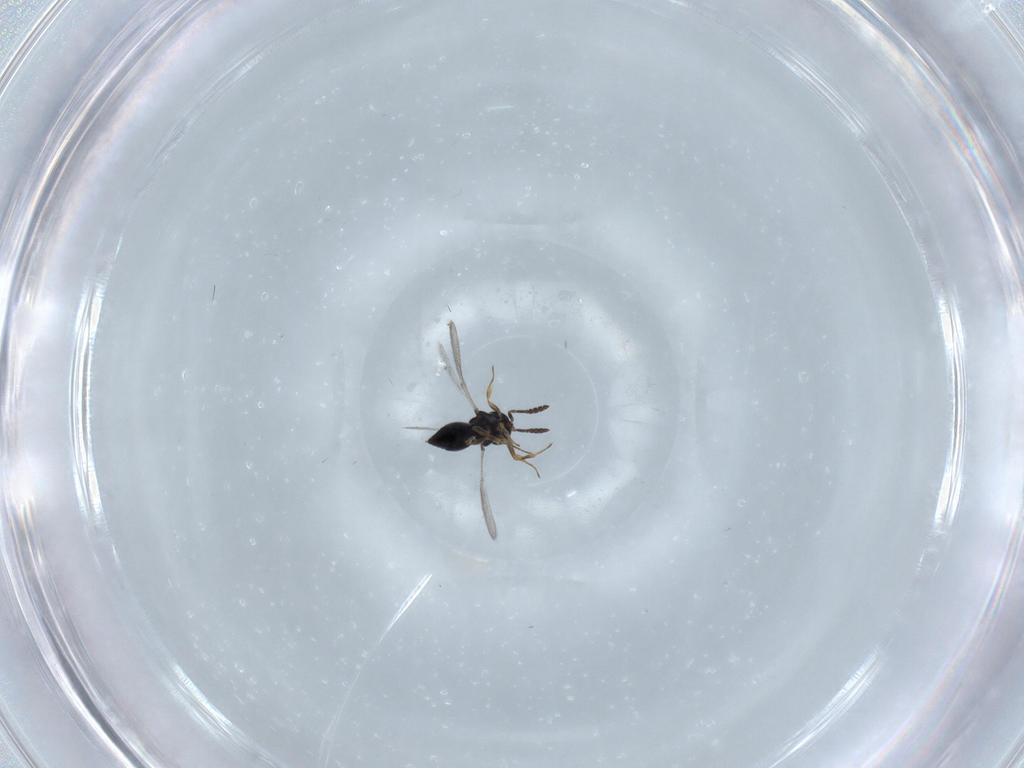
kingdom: Animalia
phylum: Arthropoda
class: Insecta
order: Hymenoptera
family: Scelionidae
